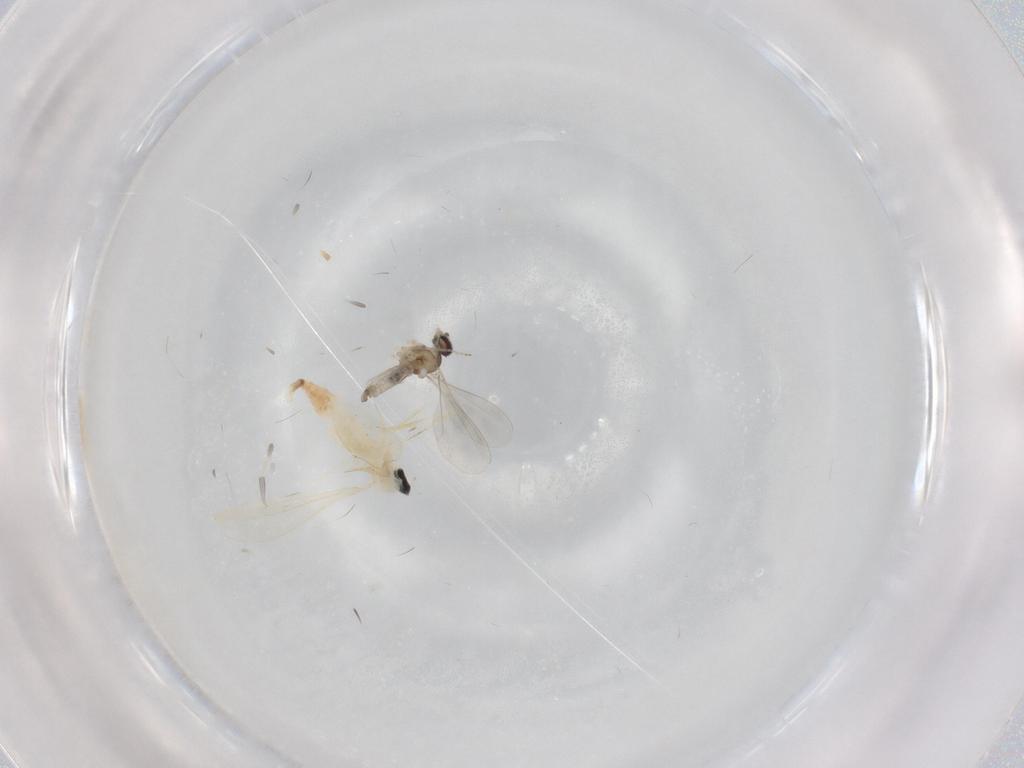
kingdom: Animalia
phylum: Arthropoda
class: Insecta
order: Diptera
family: Cecidomyiidae
